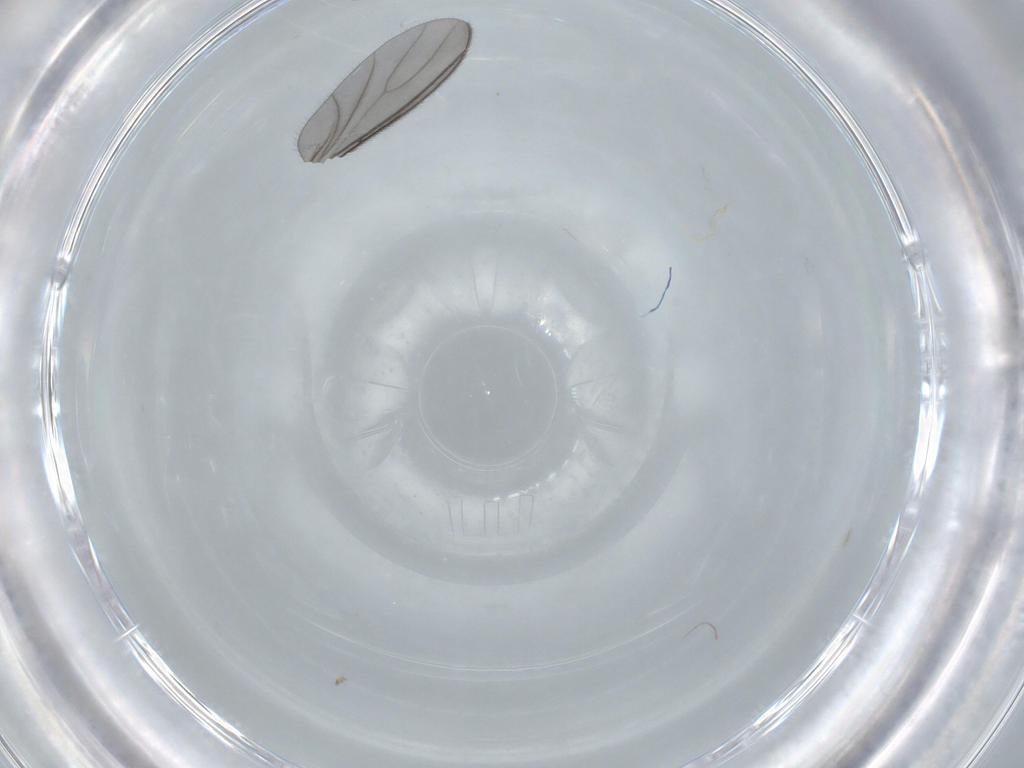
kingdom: Animalia
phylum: Arthropoda
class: Insecta
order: Diptera
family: Sciaridae
